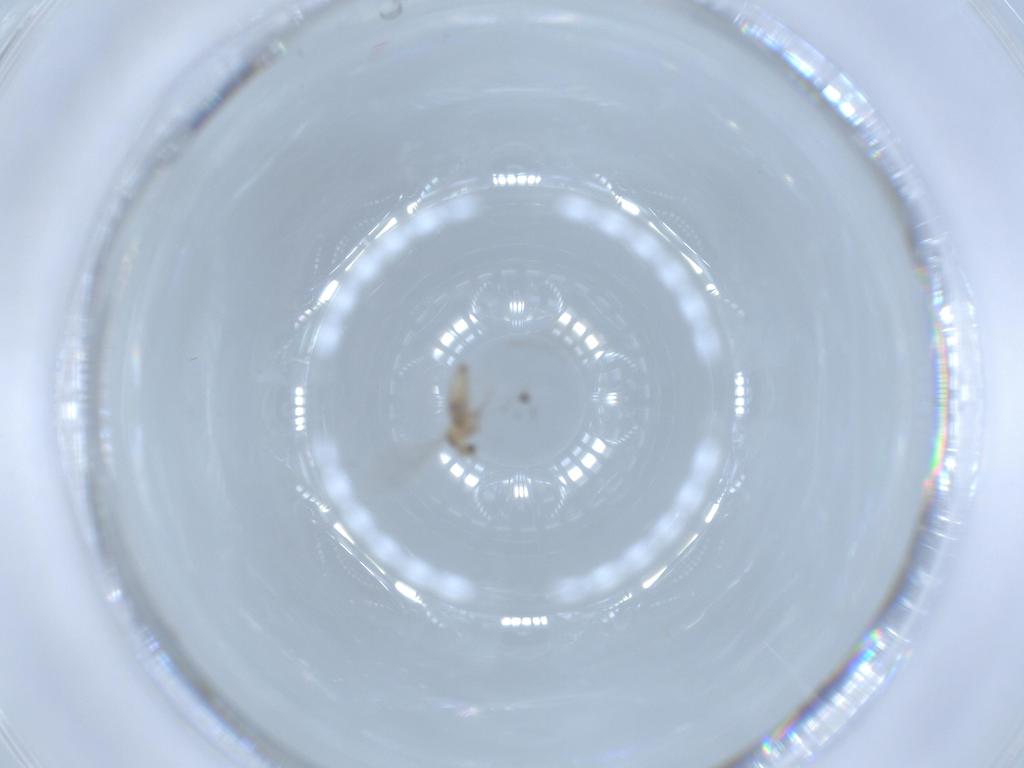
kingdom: Animalia
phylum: Arthropoda
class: Insecta
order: Diptera
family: Cecidomyiidae
